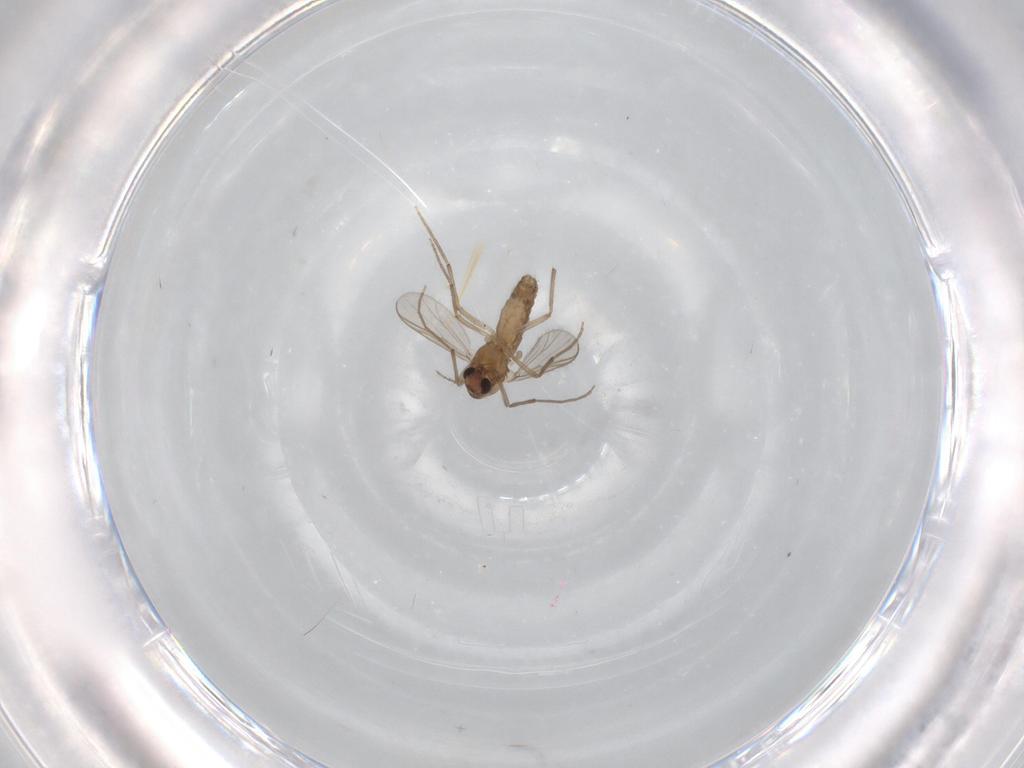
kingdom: Animalia
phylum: Arthropoda
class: Insecta
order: Diptera
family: Chironomidae
